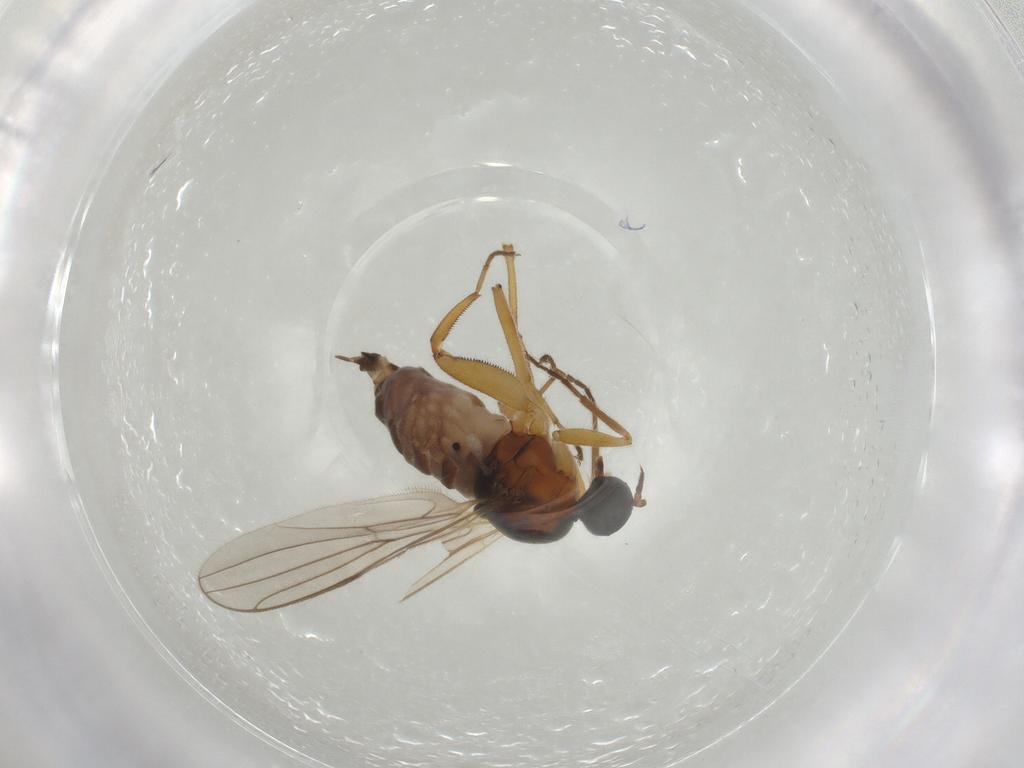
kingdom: Animalia
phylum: Arthropoda
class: Insecta
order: Diptera
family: Hybotidae
